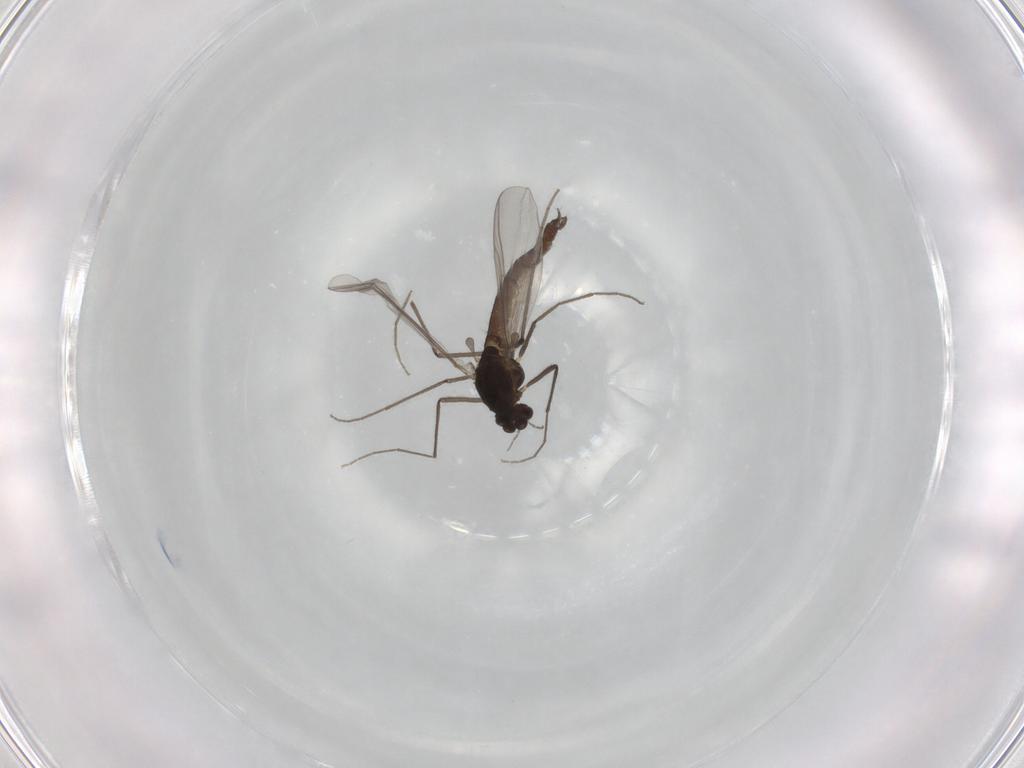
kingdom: Animalia
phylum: Arthropoda
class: Insecta
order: Diptera
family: Chironomidae
